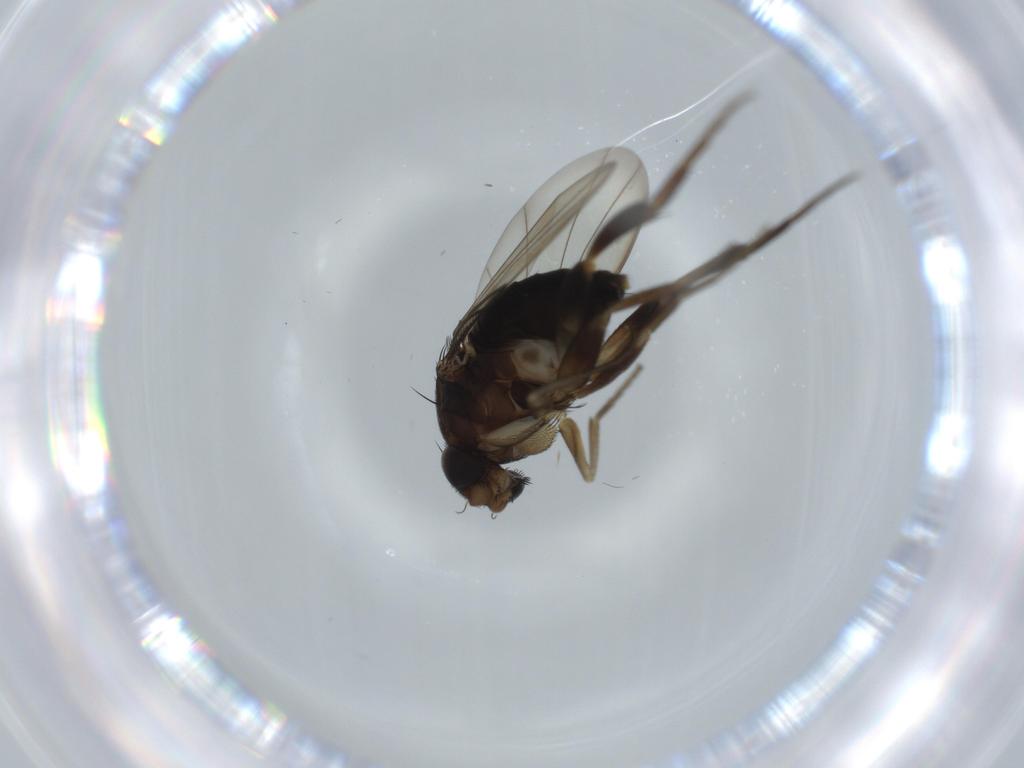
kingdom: Animalia
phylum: Arthropoda
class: Insecta
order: Diptera
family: Phoridae
